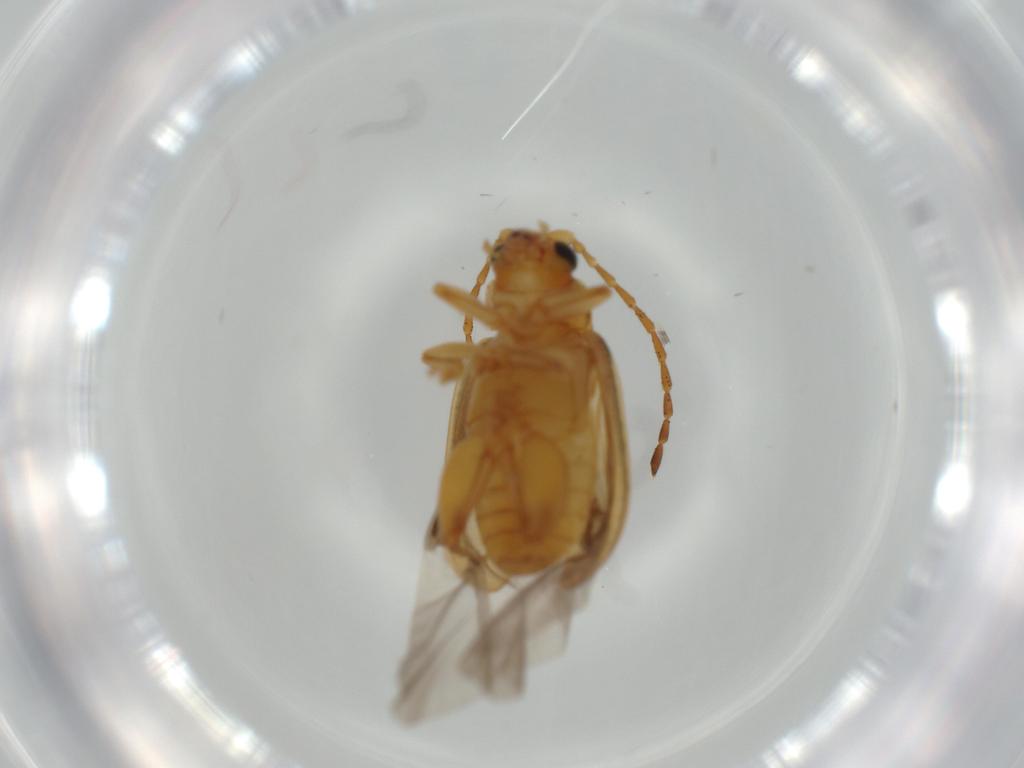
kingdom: Animalia
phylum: Arthropoda
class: Insecta
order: Coleoptera
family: Chrysomelidae
